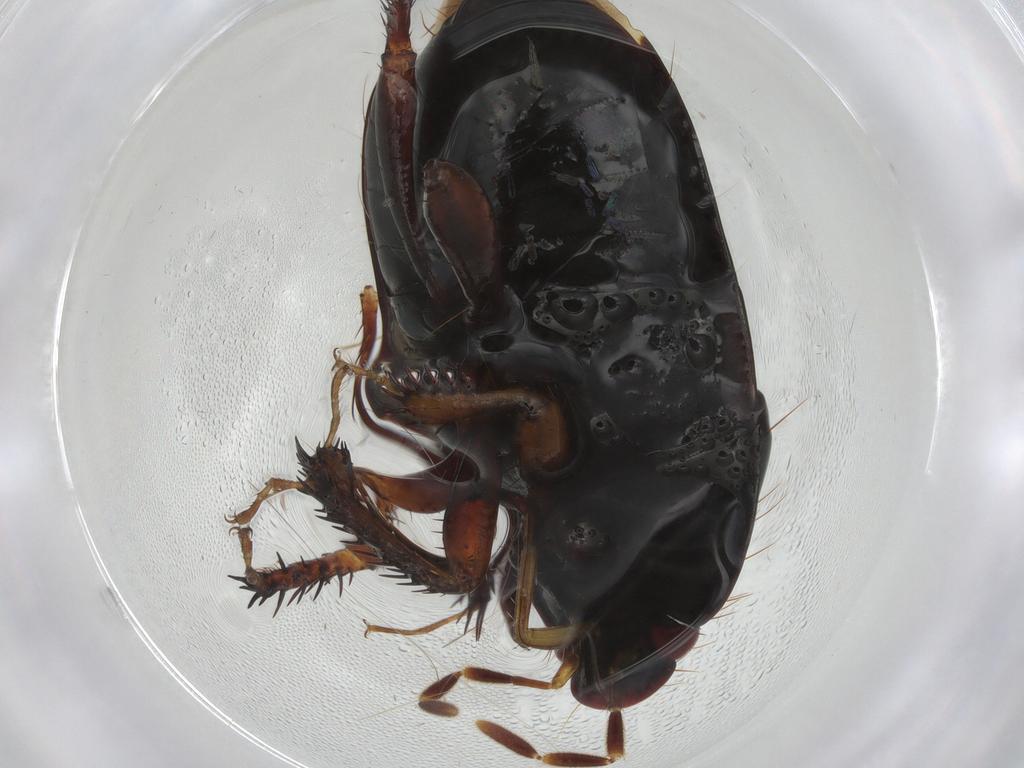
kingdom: Animalia
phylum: Arthropoda
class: Insecta
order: Hemiptera
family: Cydnidae
